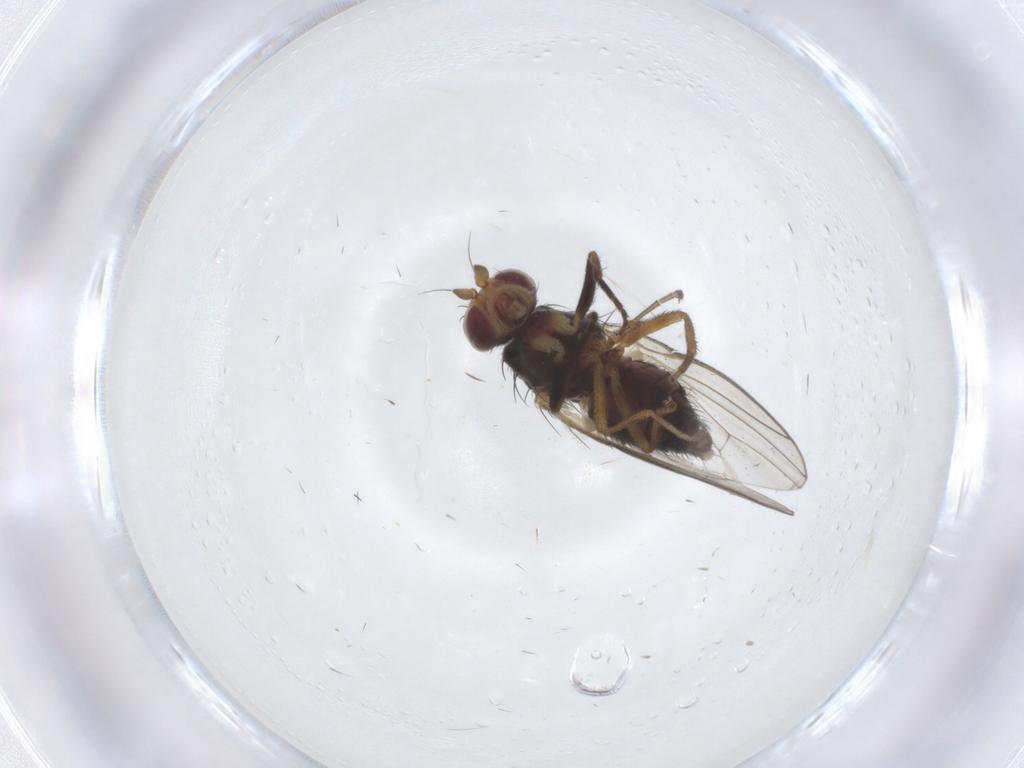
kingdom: Animalia
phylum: Arthropoda
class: Insecta
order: Diptera
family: Heleomyzidae
